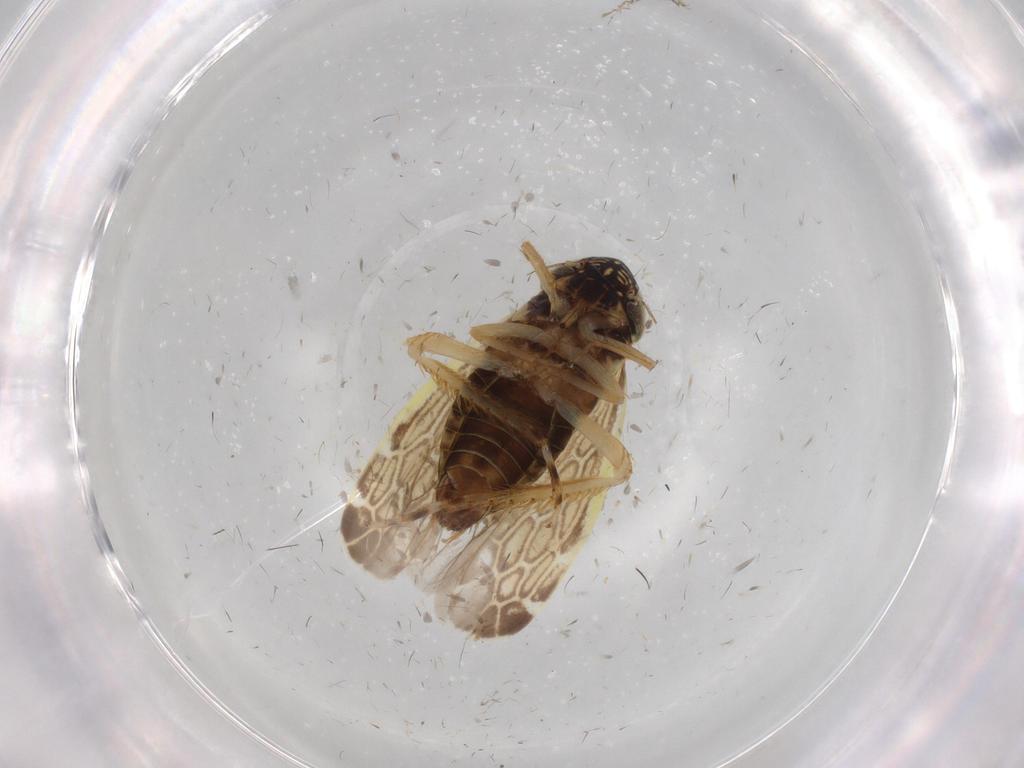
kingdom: Animalia
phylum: Arthropoda
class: Insecta
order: Hemiptera
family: Cicadellidae
